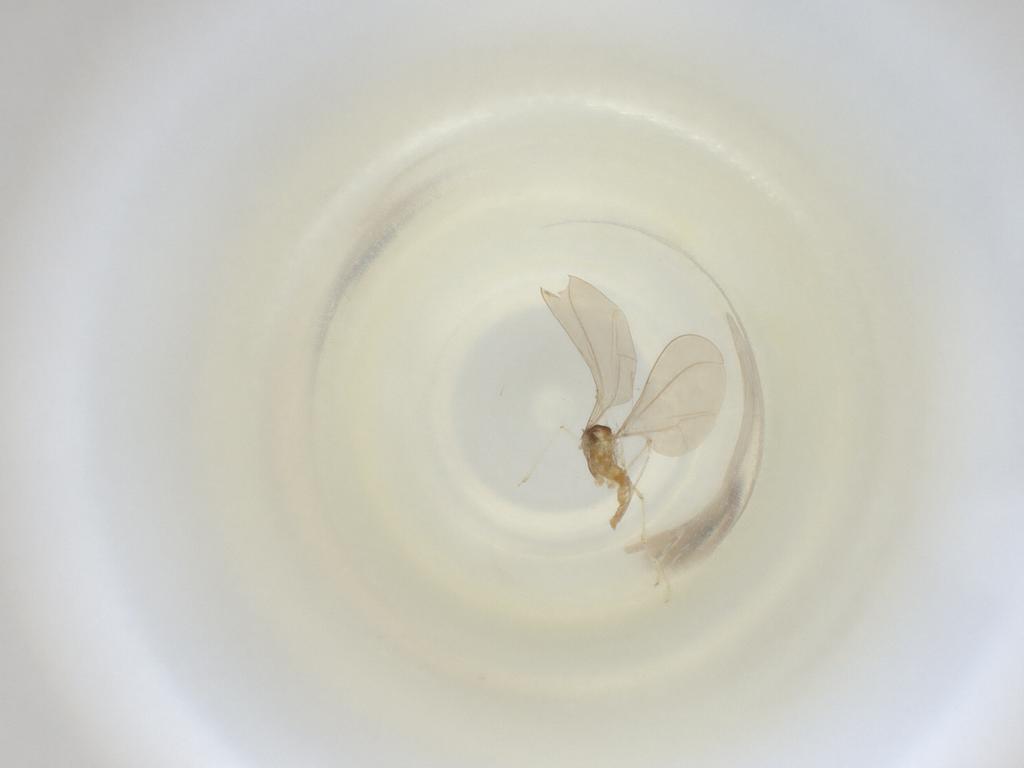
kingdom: Animalia
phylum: Arthropoda
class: Insecta
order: Diptera
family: Cecidomyiidae
